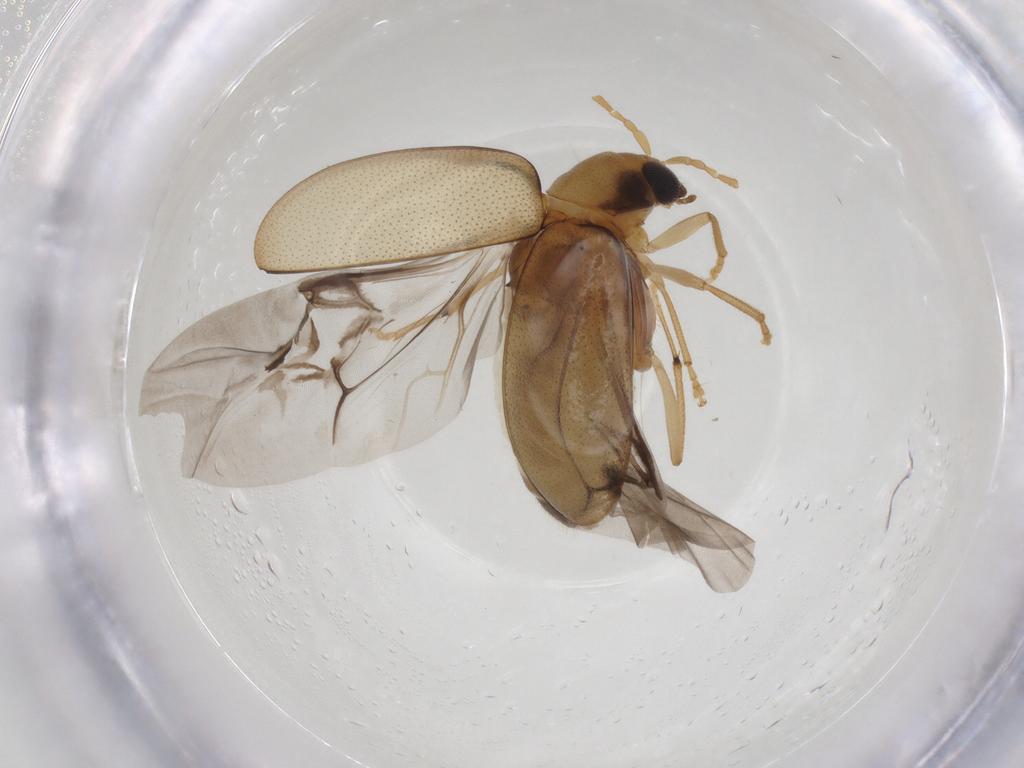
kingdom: Animalia
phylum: Arthropoda
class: Insecta
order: Coleoptera
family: Chrysomelidae
